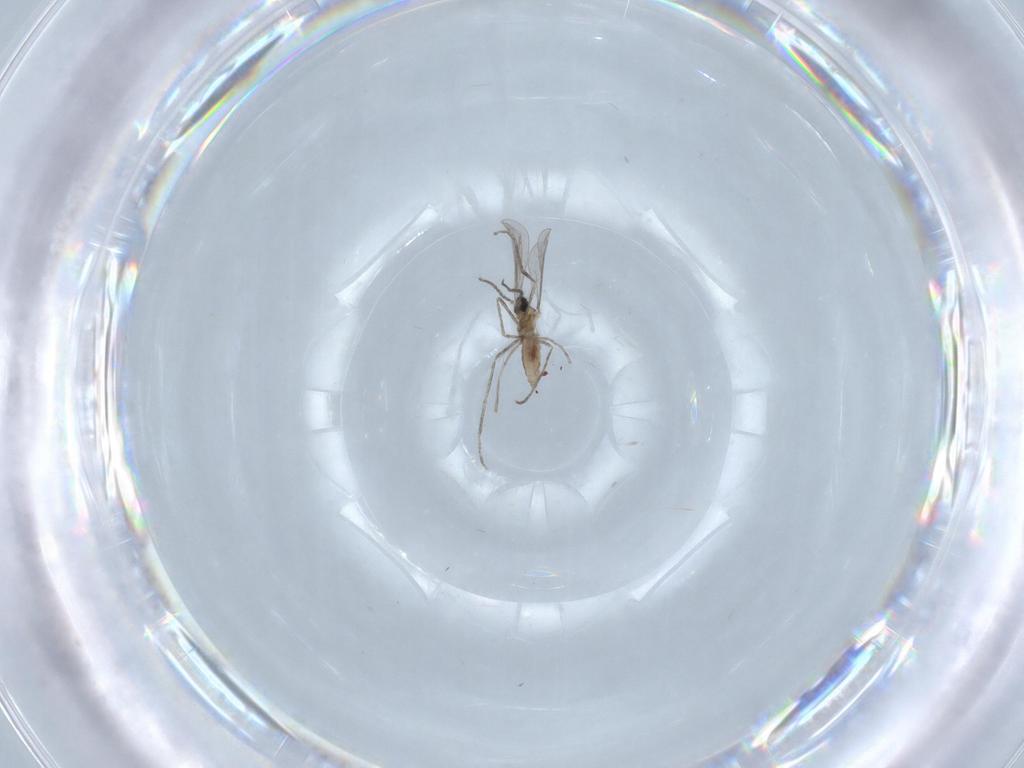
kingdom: Animalia
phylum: Arthropoda
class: Insecta
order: Diptera
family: Cecidomyiidae
